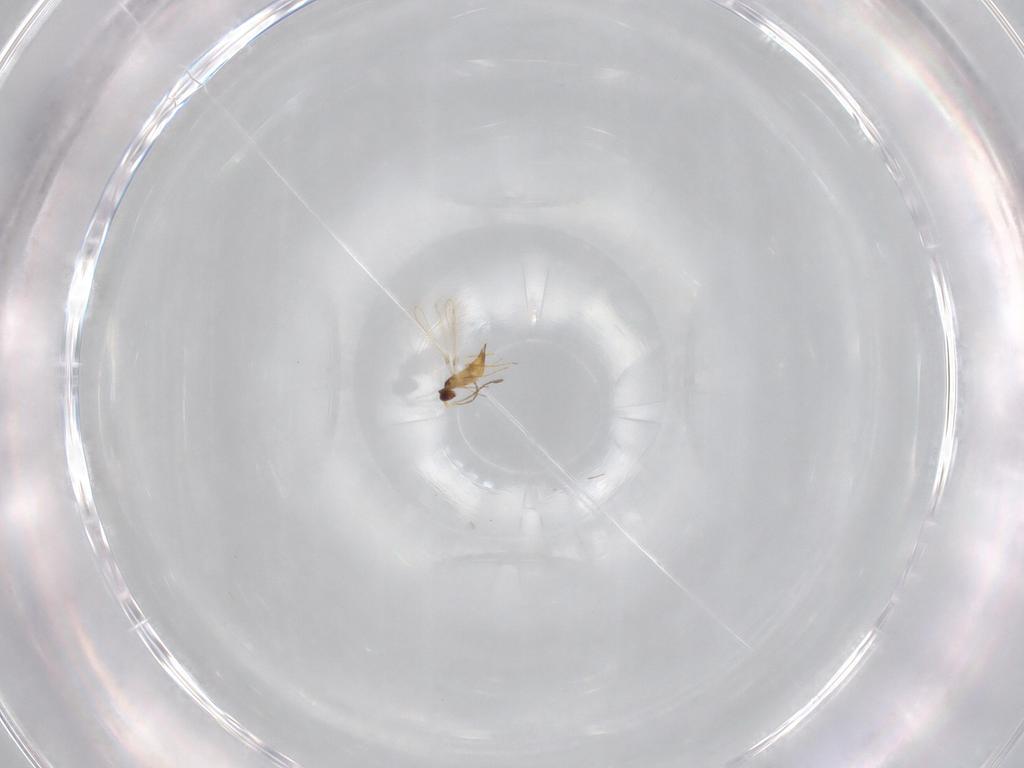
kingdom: Animalia
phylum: Arthropoda
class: Insecta
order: Hymenoptera
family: Mymaridae
